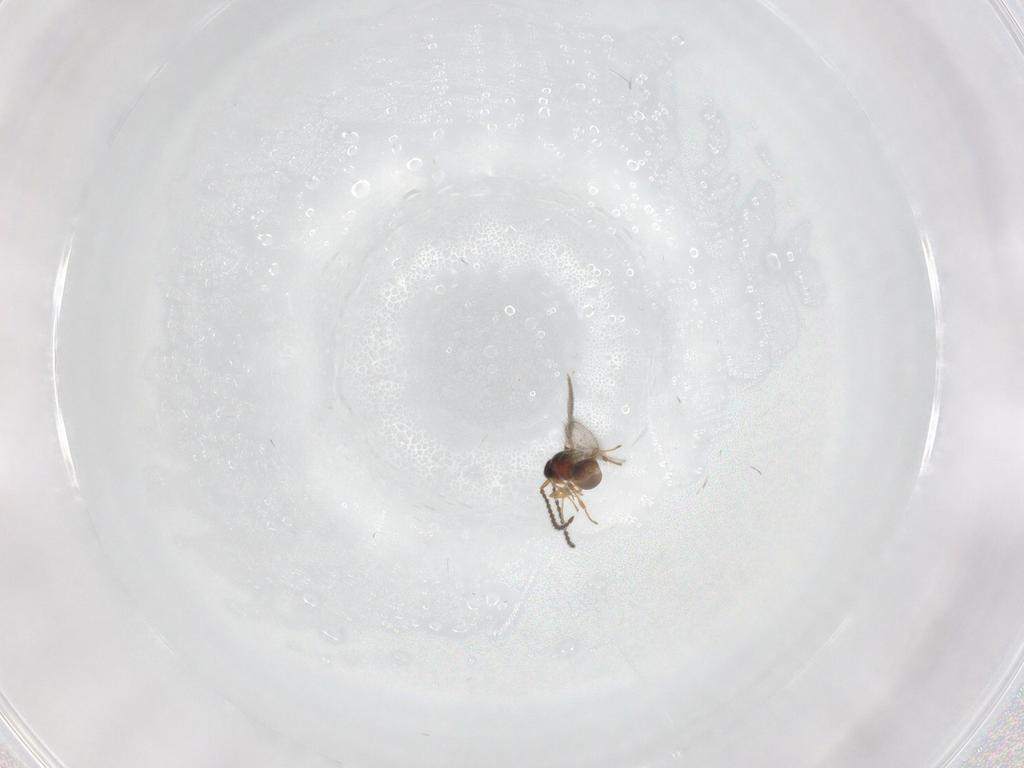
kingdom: Animalia
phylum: Arthropoda
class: Insecta
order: Hymenoptera
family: Diapriidae
